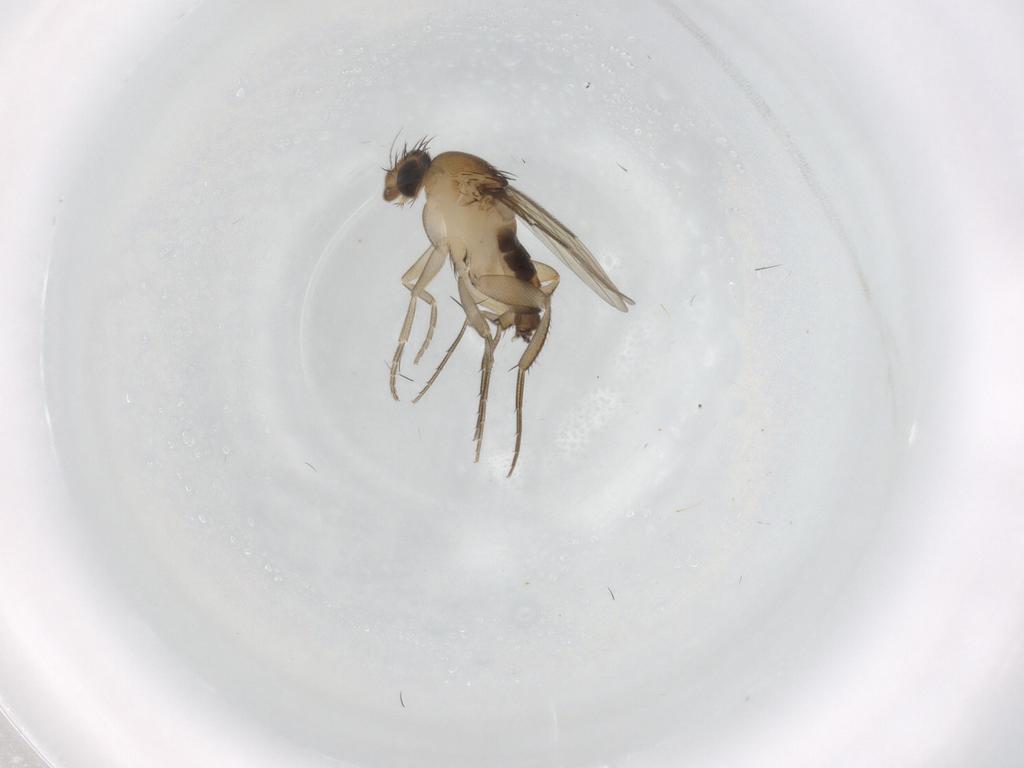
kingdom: Animalia
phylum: Arthropoda
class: Insecta
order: Diptera
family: Phoridae
